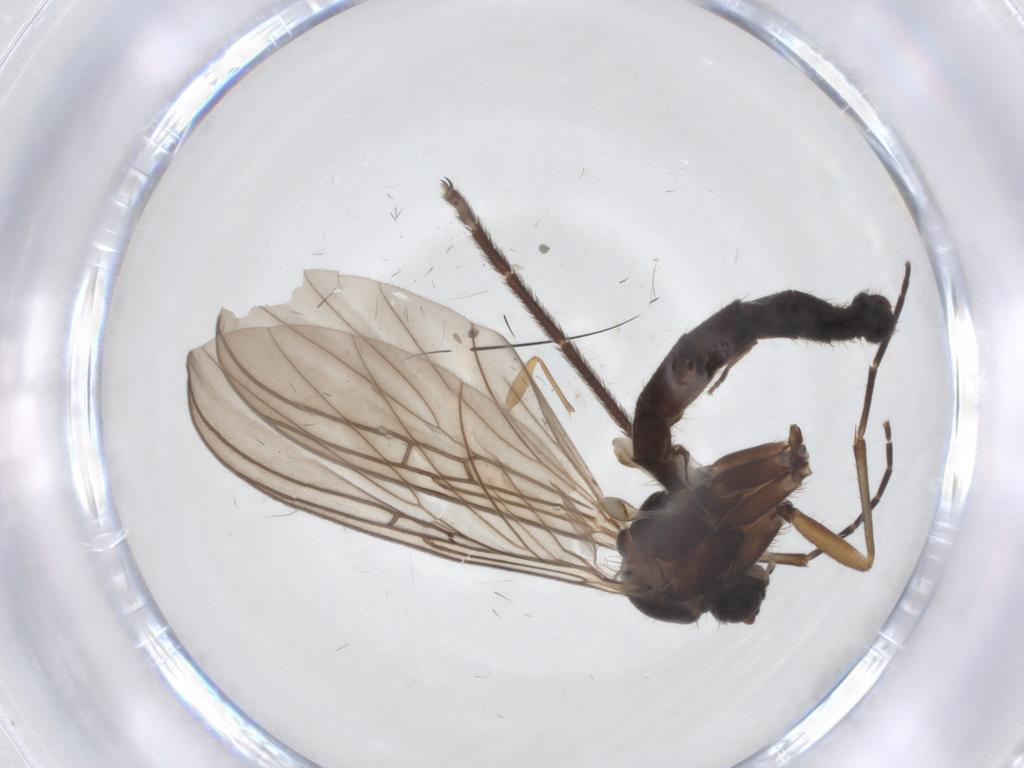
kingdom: Animalia
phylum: Arthropoda
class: Insecta
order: Diptera
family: Mycetophilidae
